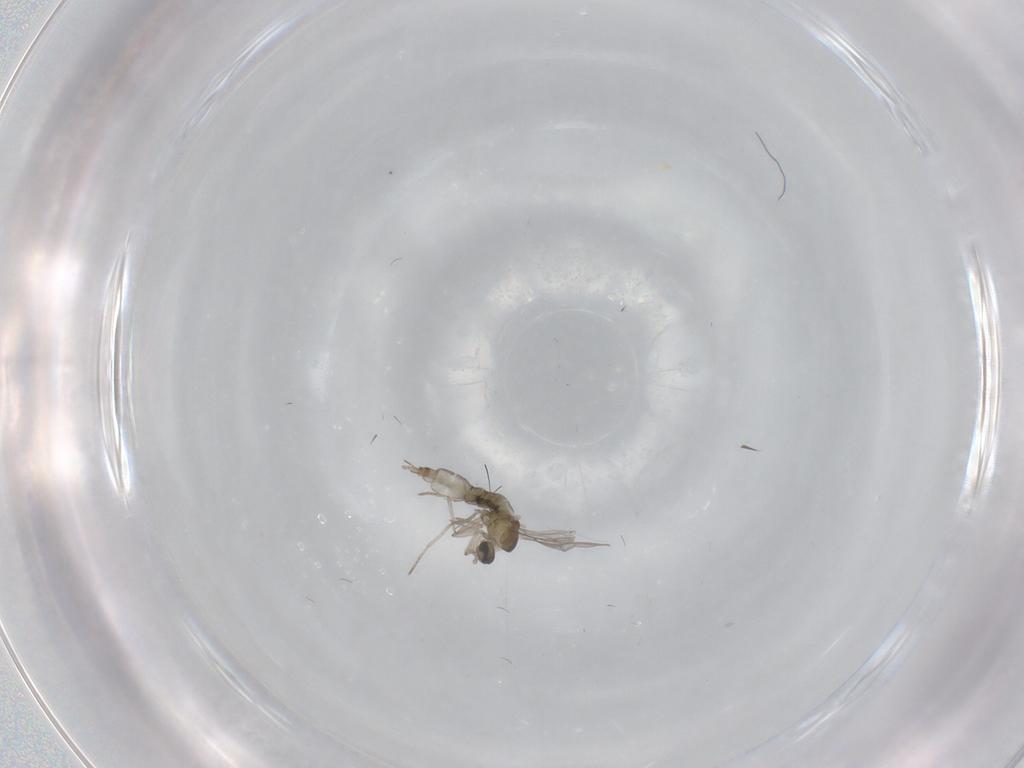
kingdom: Animalia
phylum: Arthropoda
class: Insecta
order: Diptera
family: Cecidomyiidae
